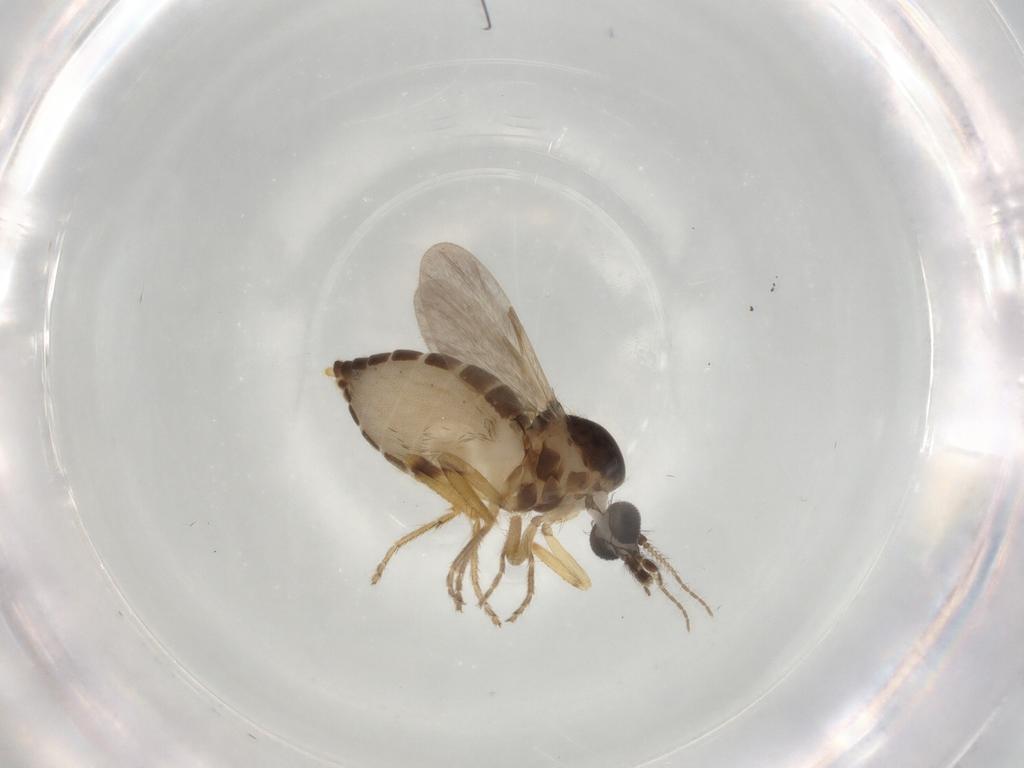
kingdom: Animalia
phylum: Arthropoda
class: Insecta
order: Diptera
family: Ceratopogonidae
